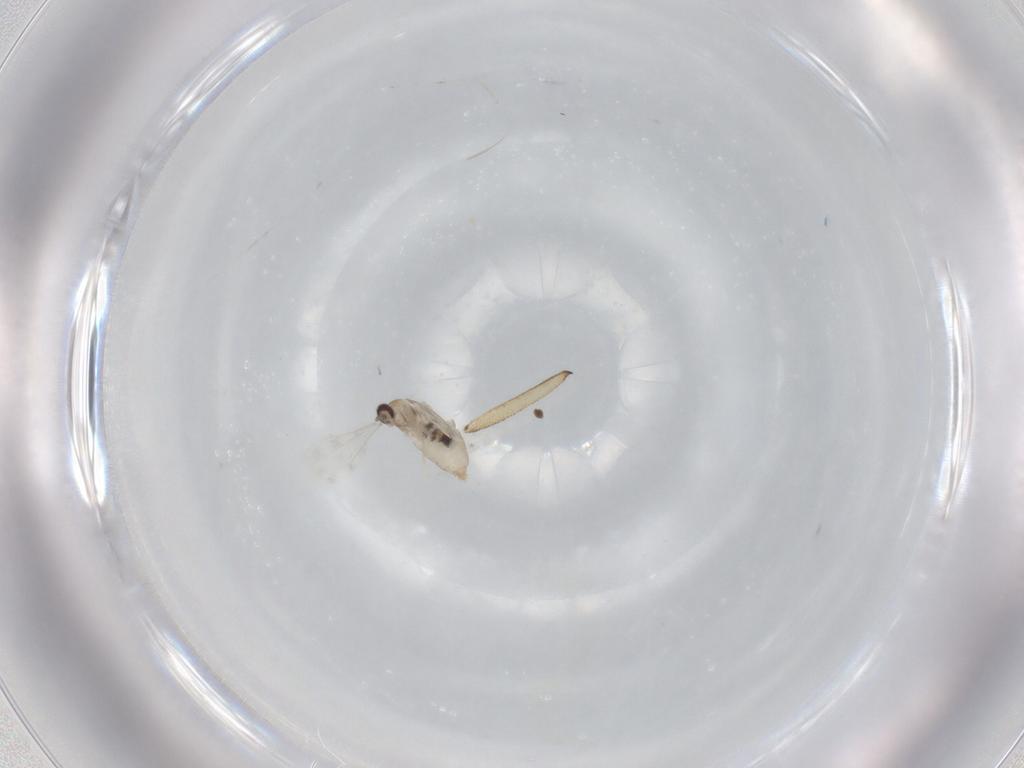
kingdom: Animalia
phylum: Arthropoda
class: Insecta
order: Diptera
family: Cecidomyiidae
